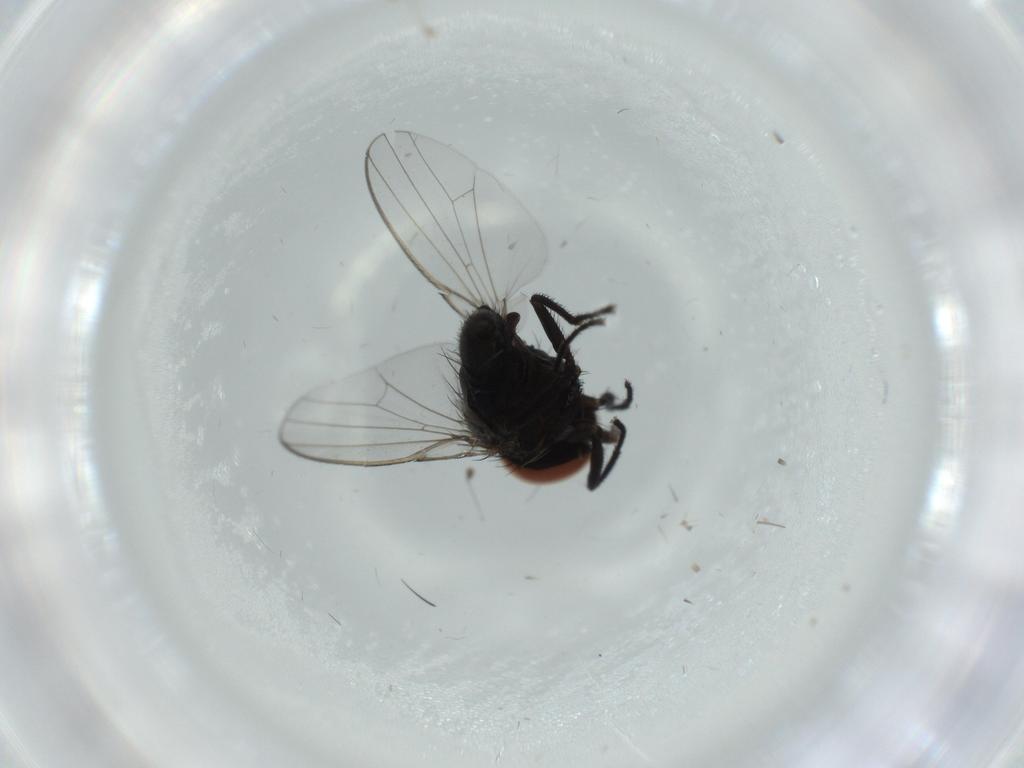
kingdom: Animalia
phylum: Arthropoda
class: Insecta
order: Diptera
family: Milichiidae
